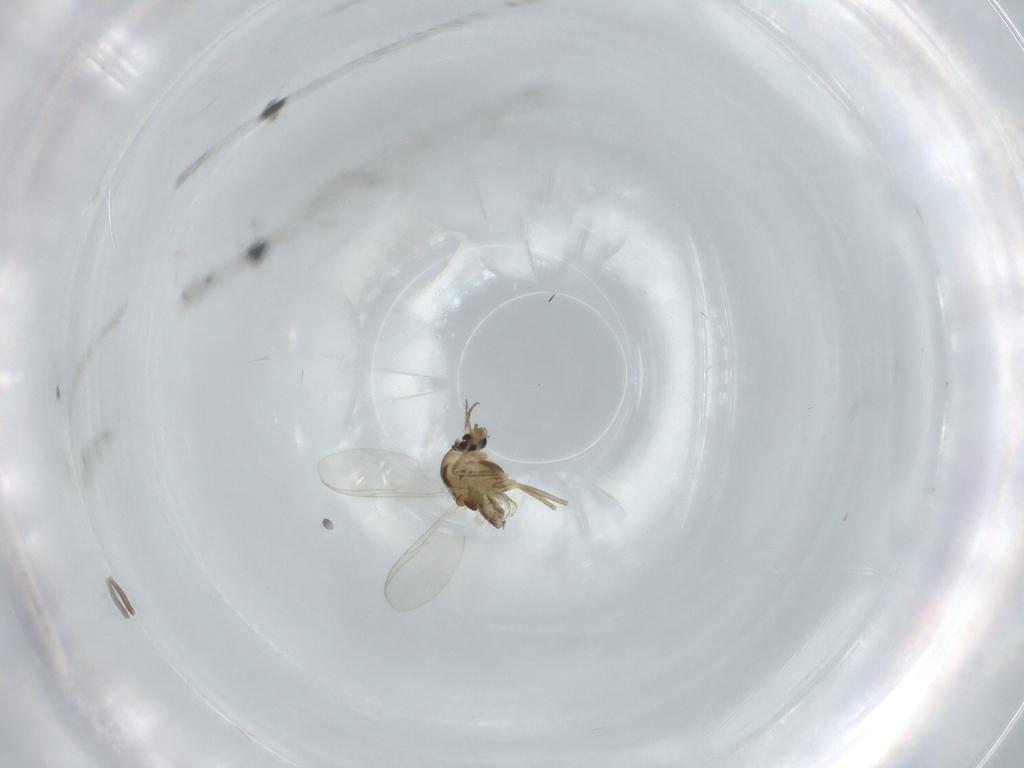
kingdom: Animalia
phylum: Arthropoda
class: Insecta
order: Diptera
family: Chironomidae
